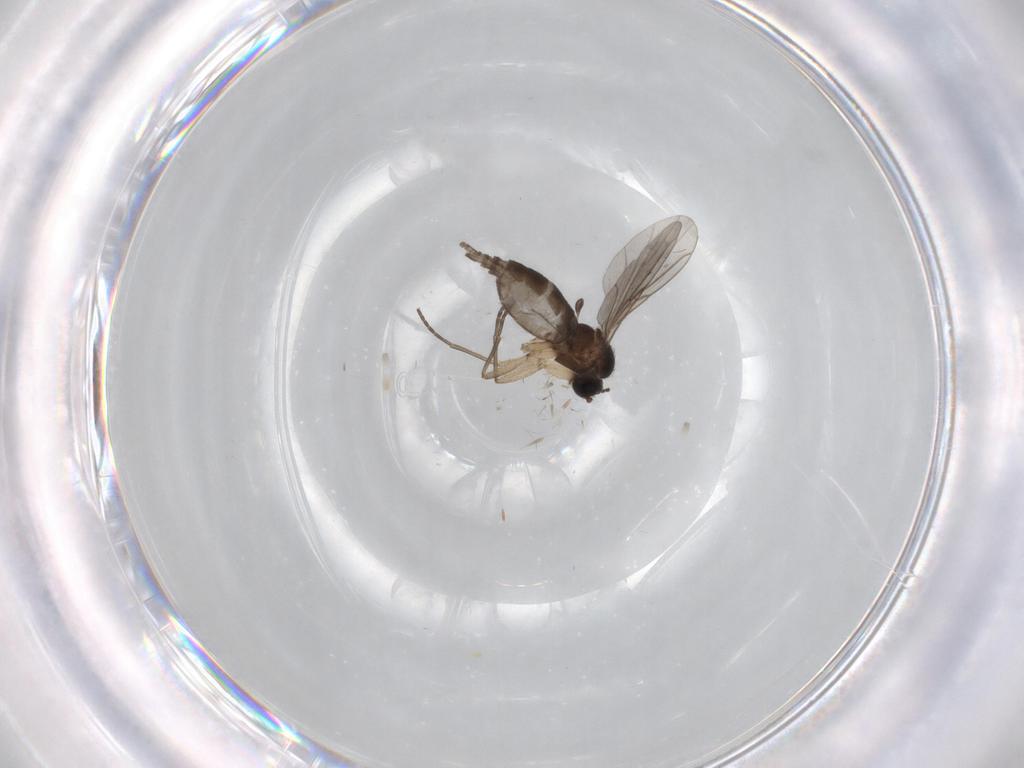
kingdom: Animalia
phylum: Arthropoda
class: Insecta
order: Diptera
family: Sciaridae
